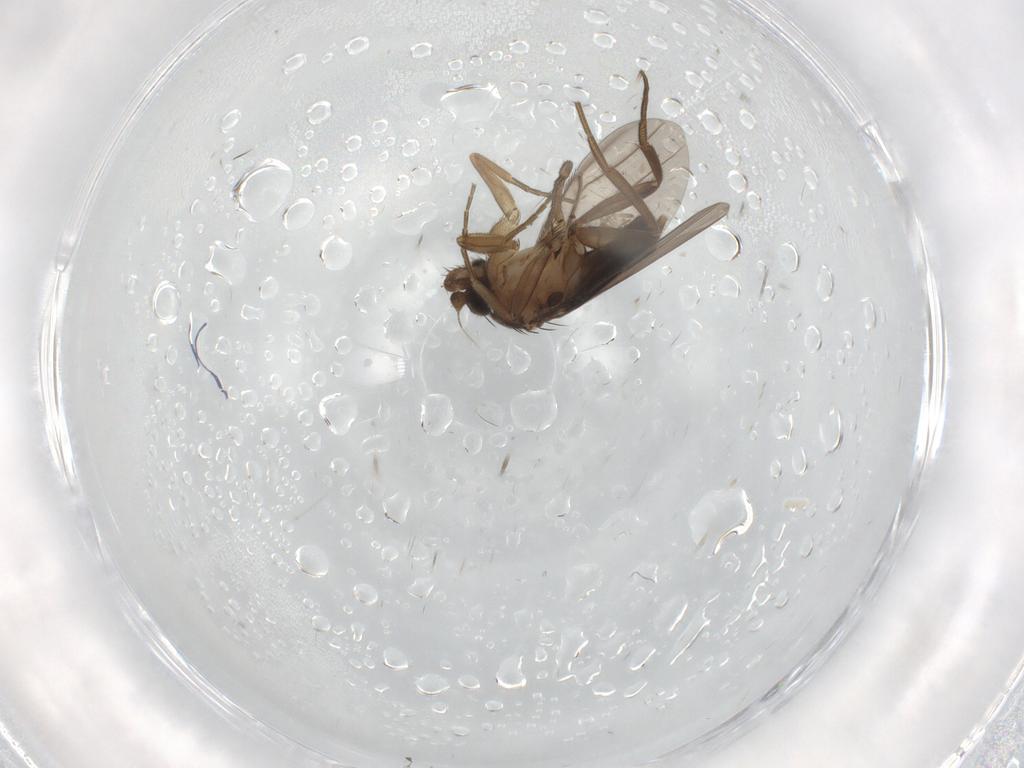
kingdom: Animalia
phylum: Arthropoda
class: Insecta
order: Diptera
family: Phoridae
